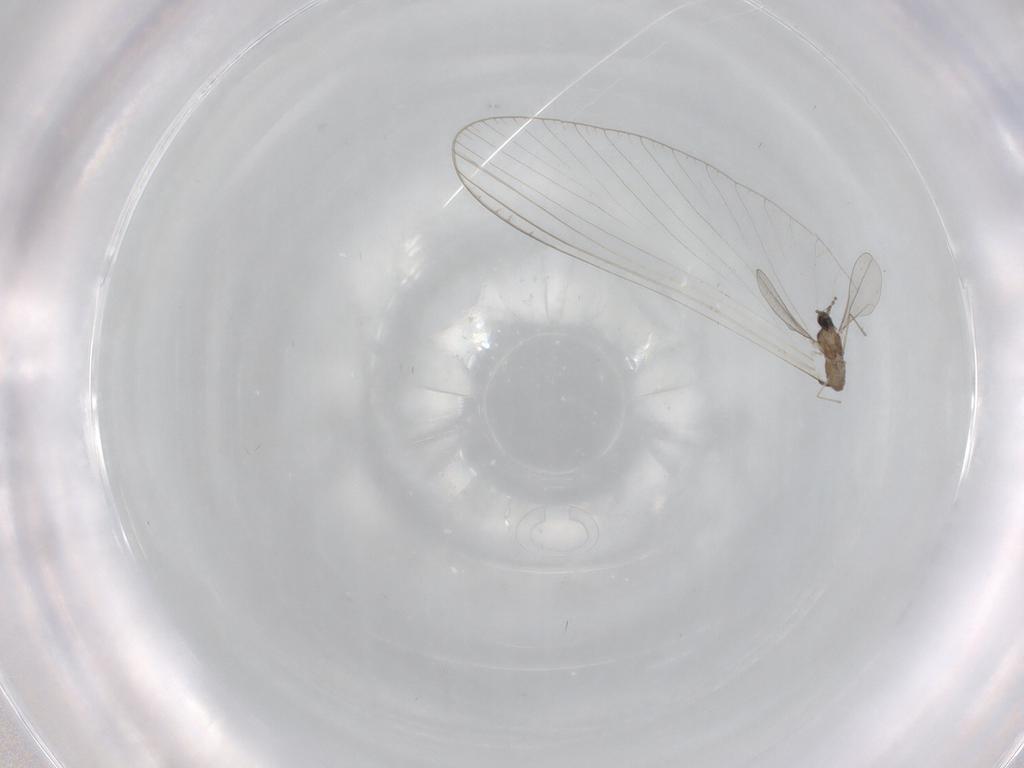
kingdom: Animalia
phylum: Arthropoda
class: Insecta
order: Diptera
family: Cecidomyiidae
